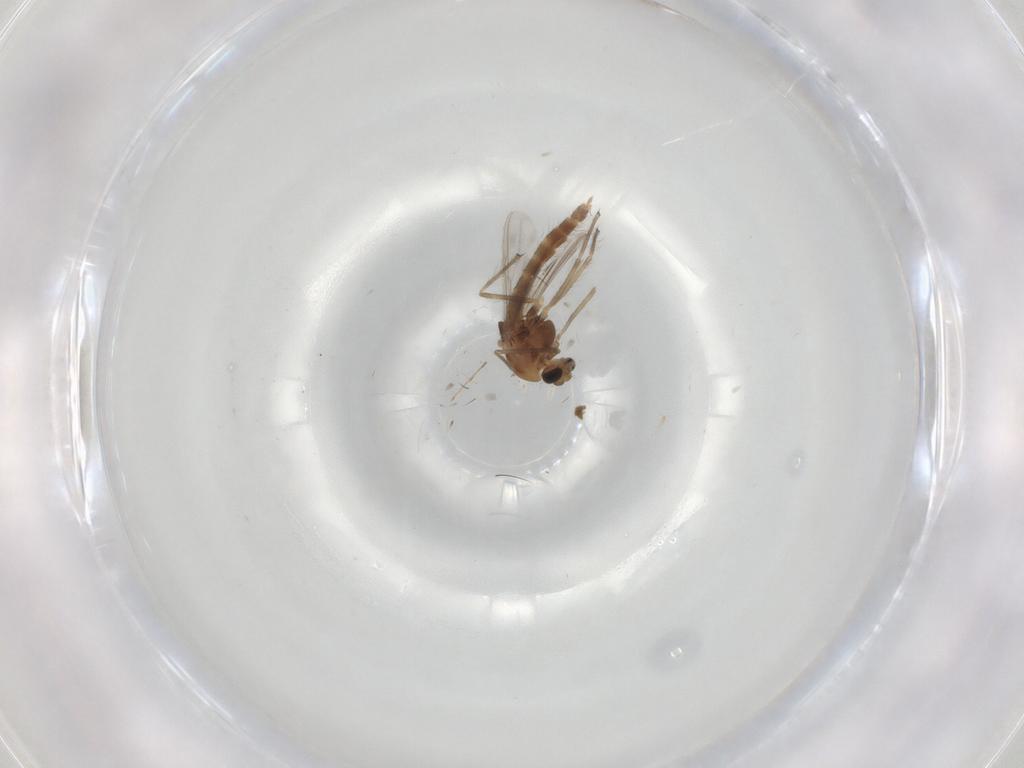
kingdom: Animalia
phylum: Arthropoda
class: Insecta
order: Diptera
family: Chironomidae
